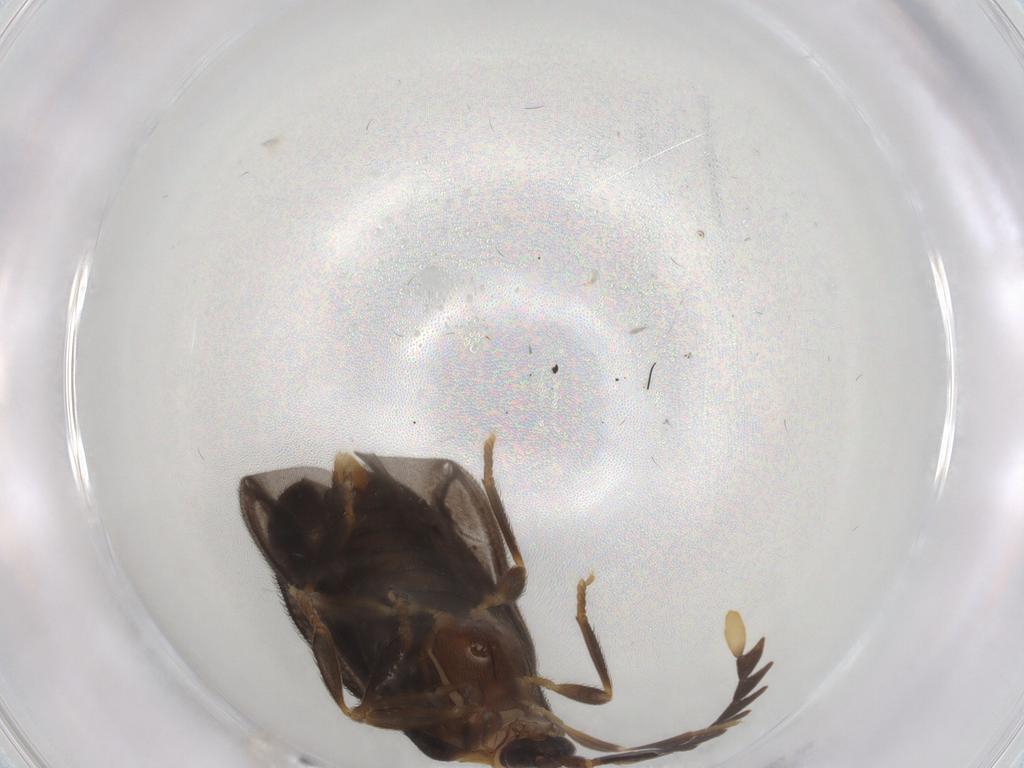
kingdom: Animalia
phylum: Arthropoda
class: Insecta
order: Coleoptera
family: Lycidae
